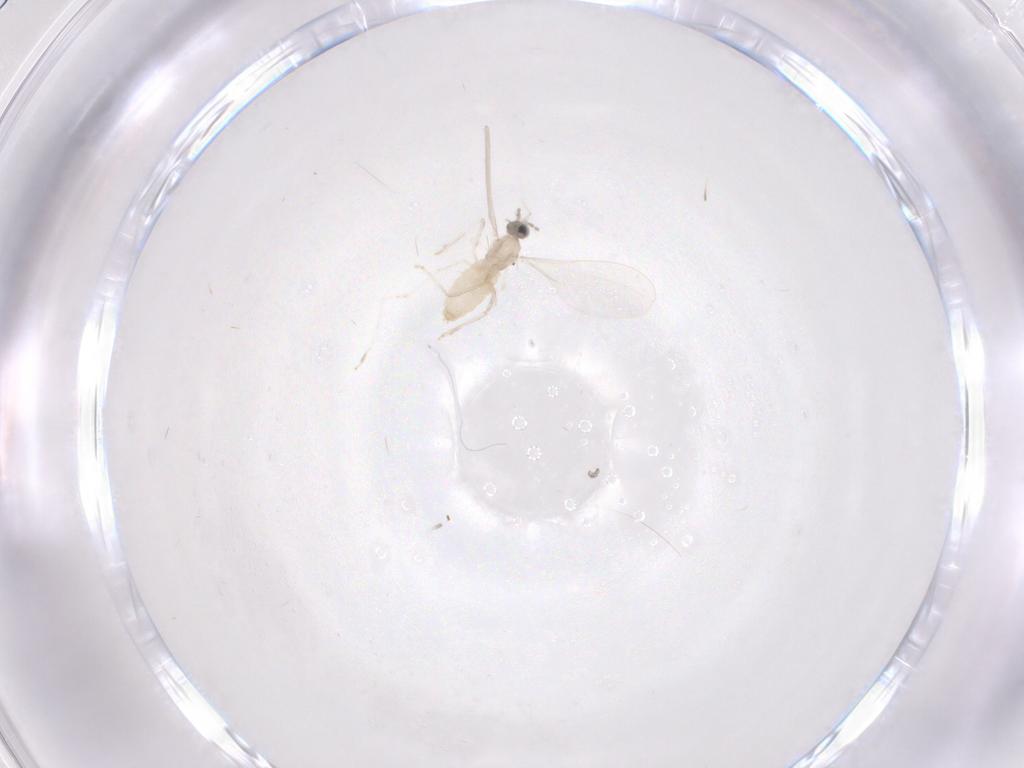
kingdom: Animalia
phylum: Arthropoda
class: Insecta
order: Diptera
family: Cecidomyiidae
